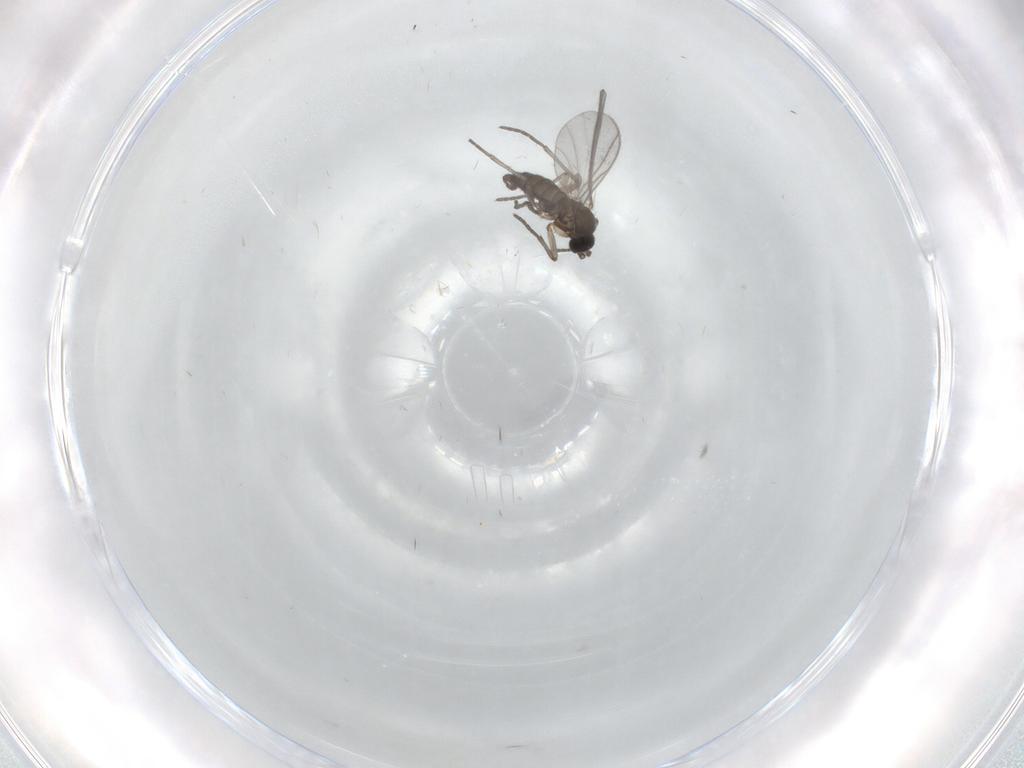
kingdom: Animalia
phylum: Arthropoda
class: Insecta
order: Diptera
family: Sciaridae
